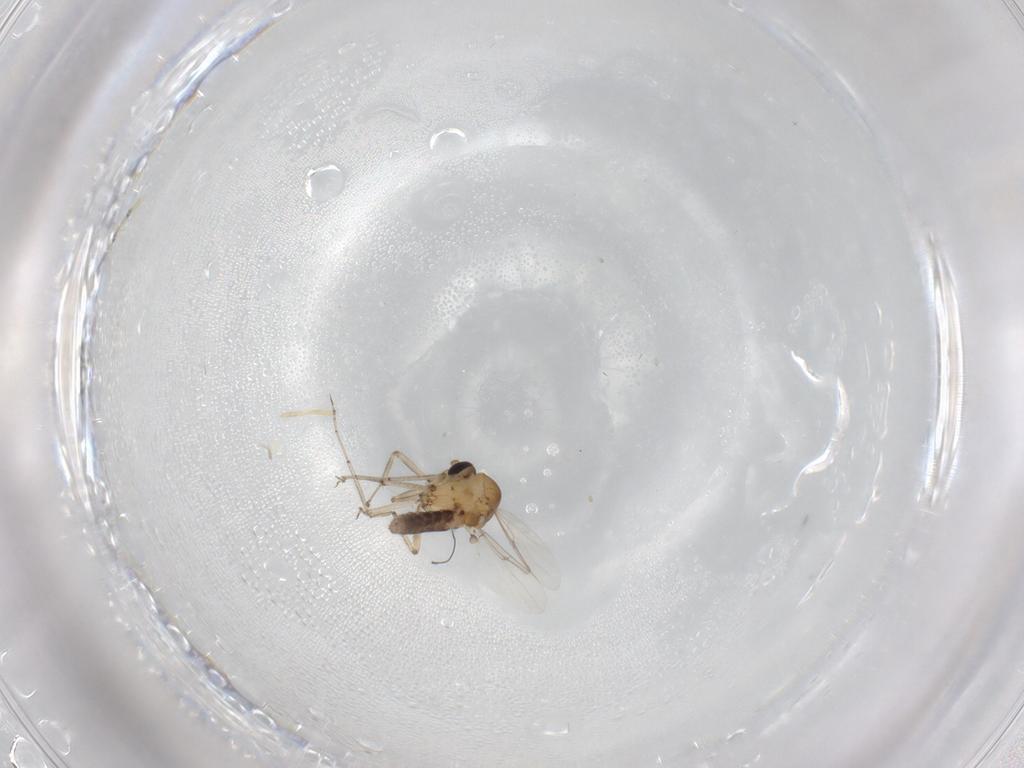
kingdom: Animalia
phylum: Arthropoda
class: Insecta
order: Diptera
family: Ceratopogonidae
